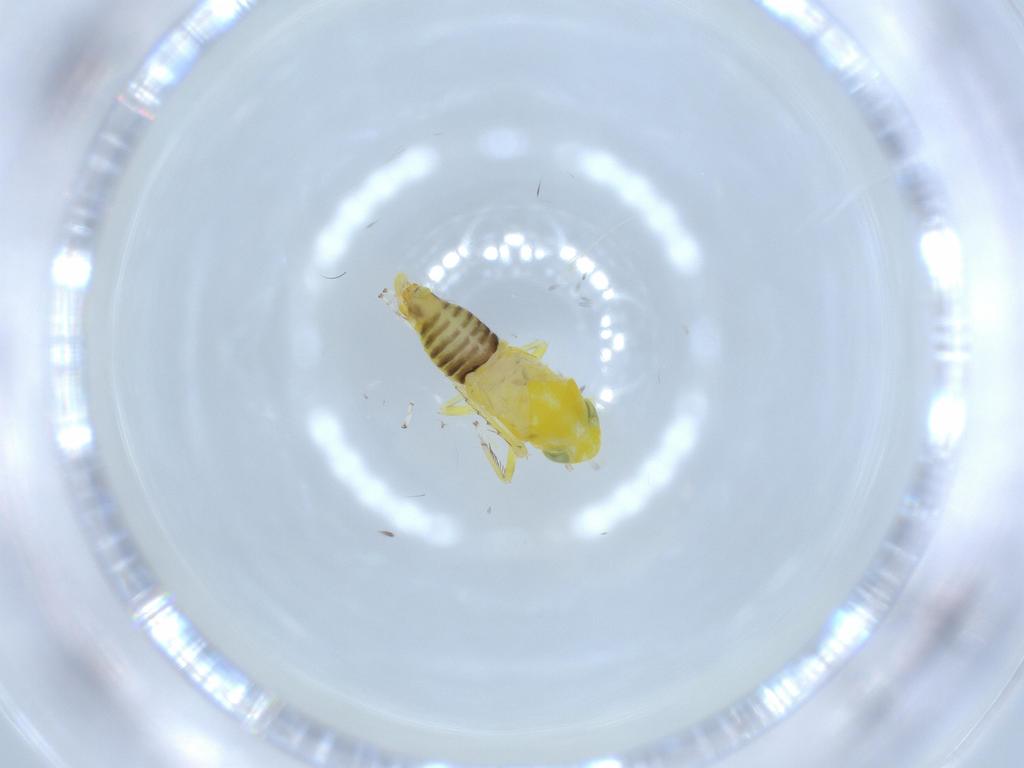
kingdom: Animalia
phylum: Arthropoda
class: Insecta
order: Hemiptera
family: Cicadellidae
